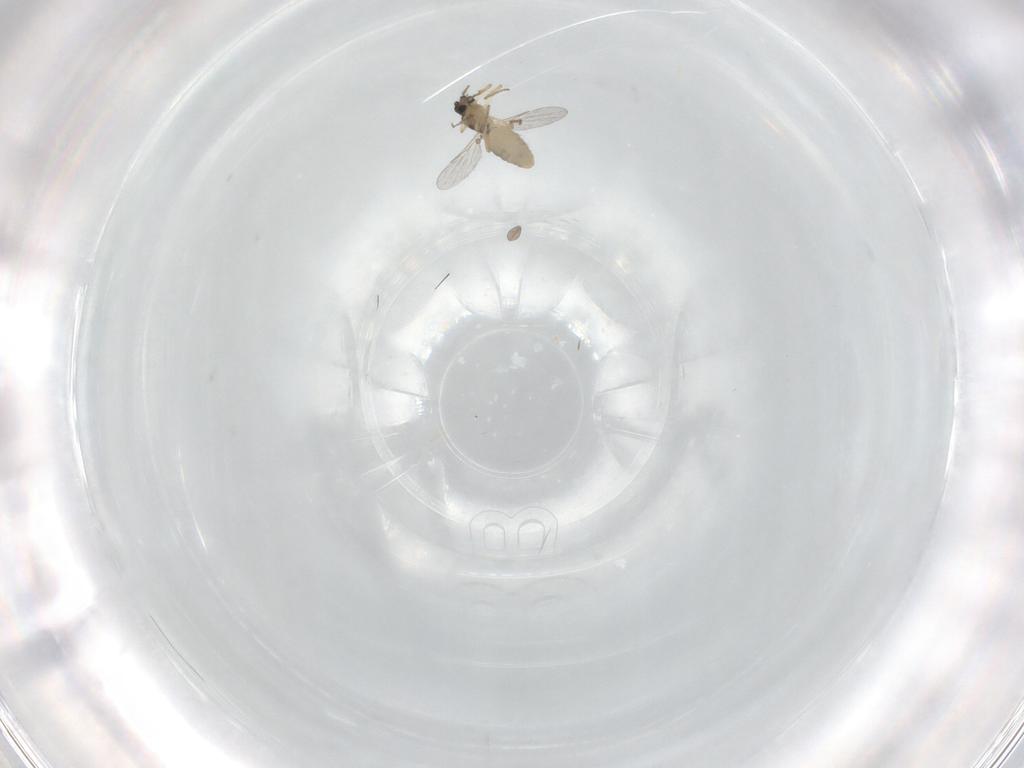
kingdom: Animalia
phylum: Arthropoda
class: Insecta
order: Diptera
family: Ceratopogonidae
